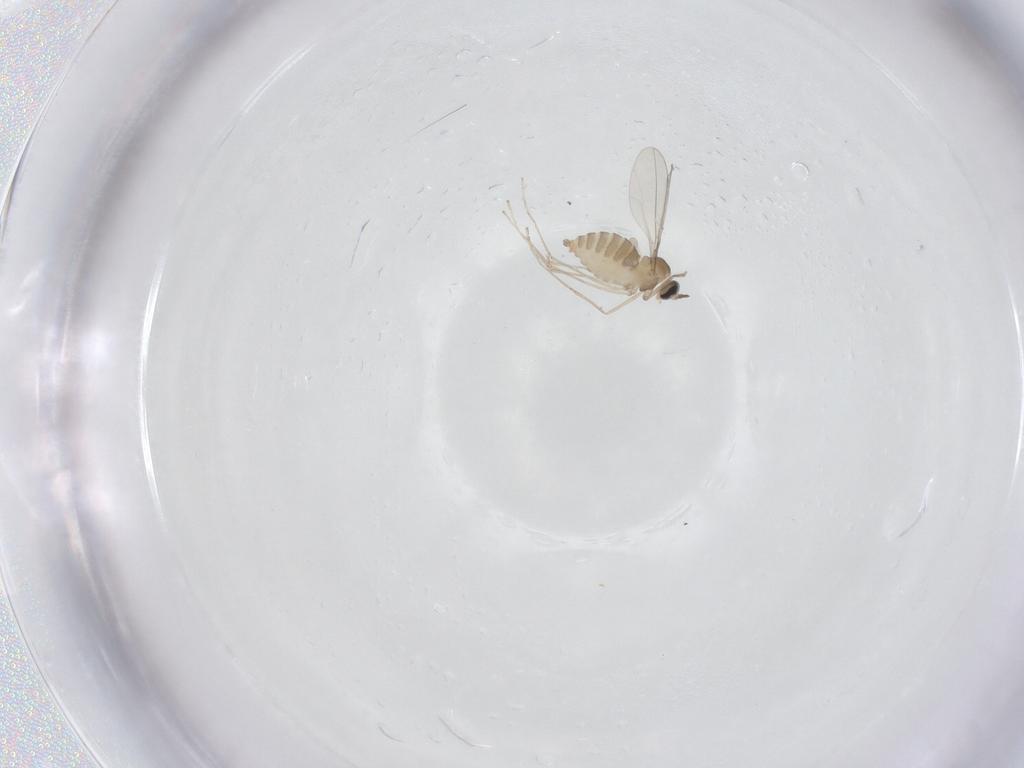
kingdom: Animalia
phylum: Arthropoda
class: Insecta
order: Diptera
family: Cecidomyiidae
